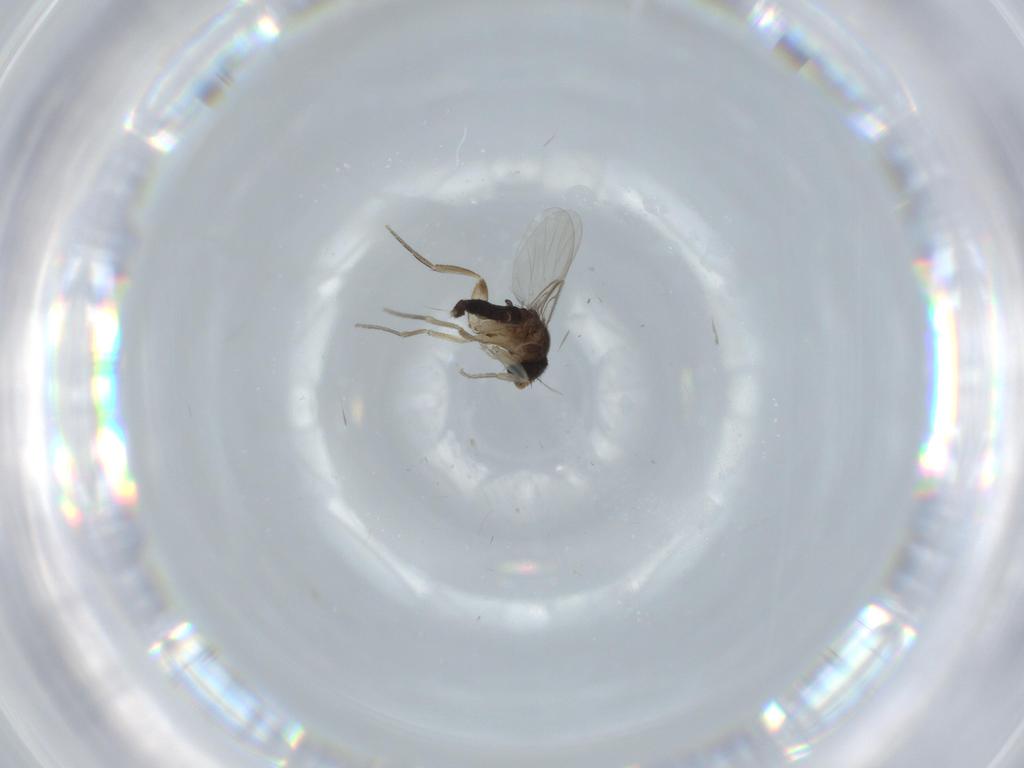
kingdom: Animalia
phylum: Arthropoda
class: Insecta
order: Diptera
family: Phoridae
